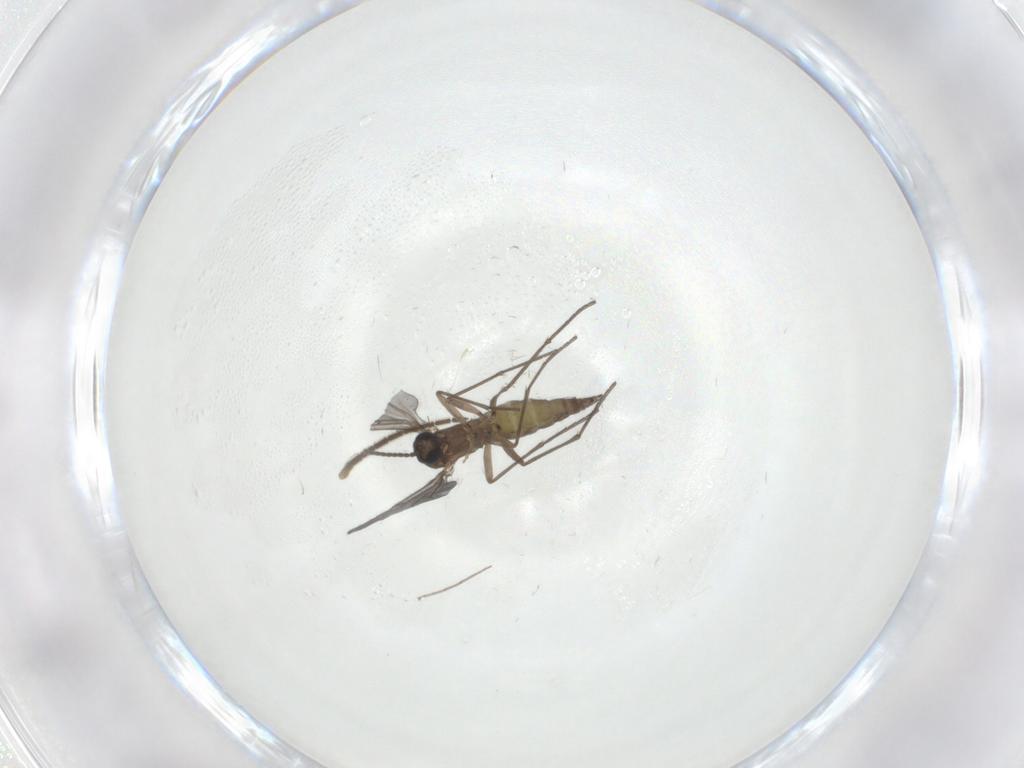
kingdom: Animalia
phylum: Arthropoda
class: Insecta
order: Diptera
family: Sciaridae
